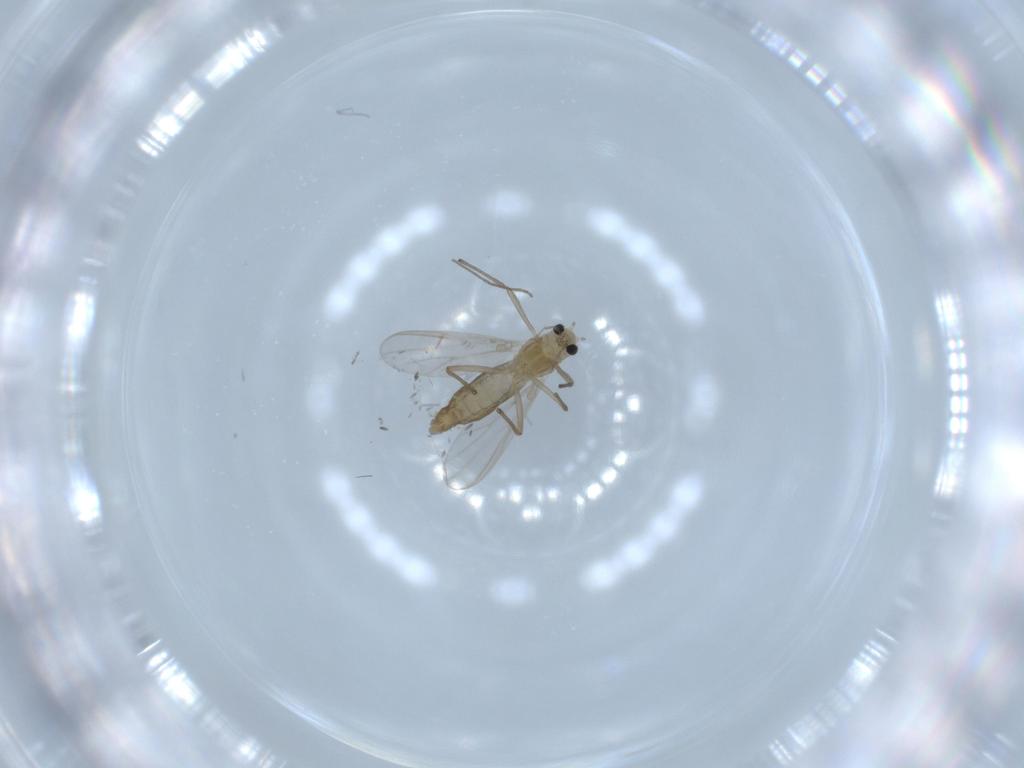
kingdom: Animalia
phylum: Arthropoda
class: Insecta
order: Diptera
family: Chironomidae
